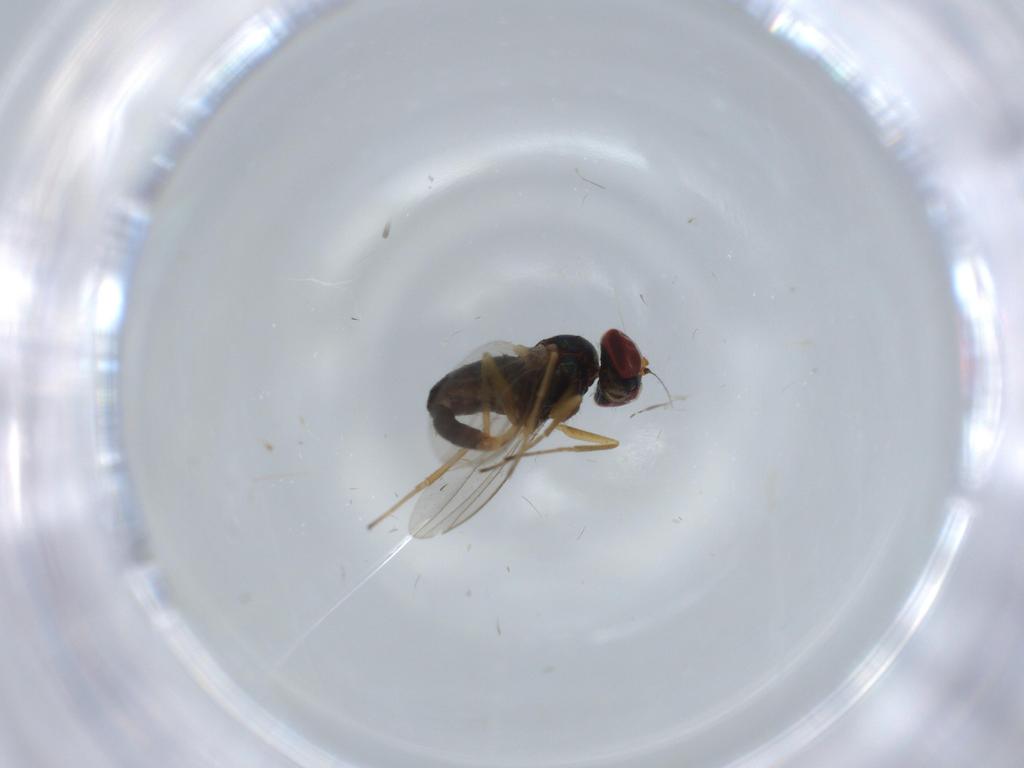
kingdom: Animalia
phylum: Arthropoda
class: Insecta
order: Diptera
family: Dolichopodidae
